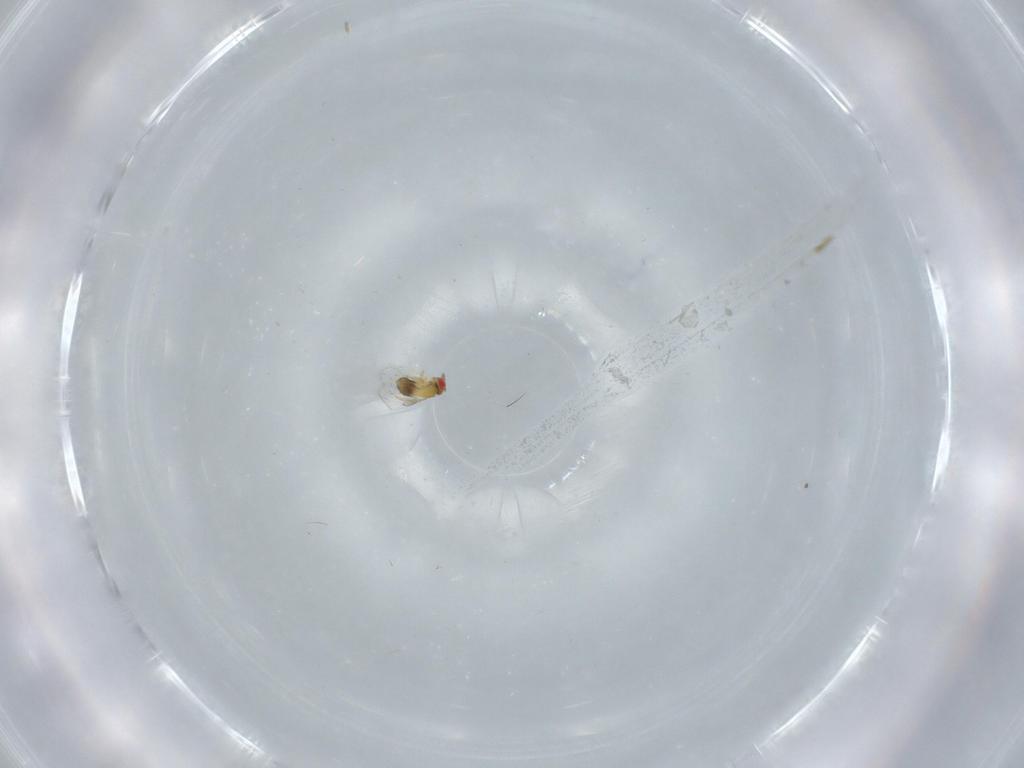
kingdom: Animalia
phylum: Arthropoda
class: Insecta
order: Hymenoptera
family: Trichogrammatidae
